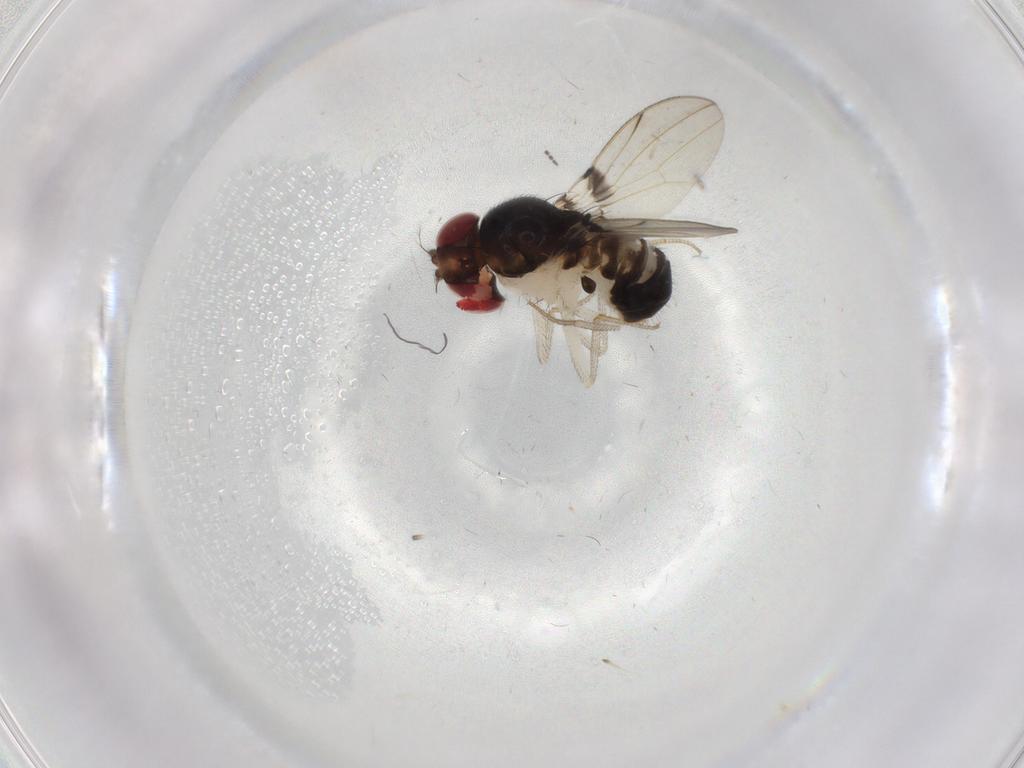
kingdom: Animalia
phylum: Arthropoda
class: Insecta
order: Diptera
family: Drosophilidae
